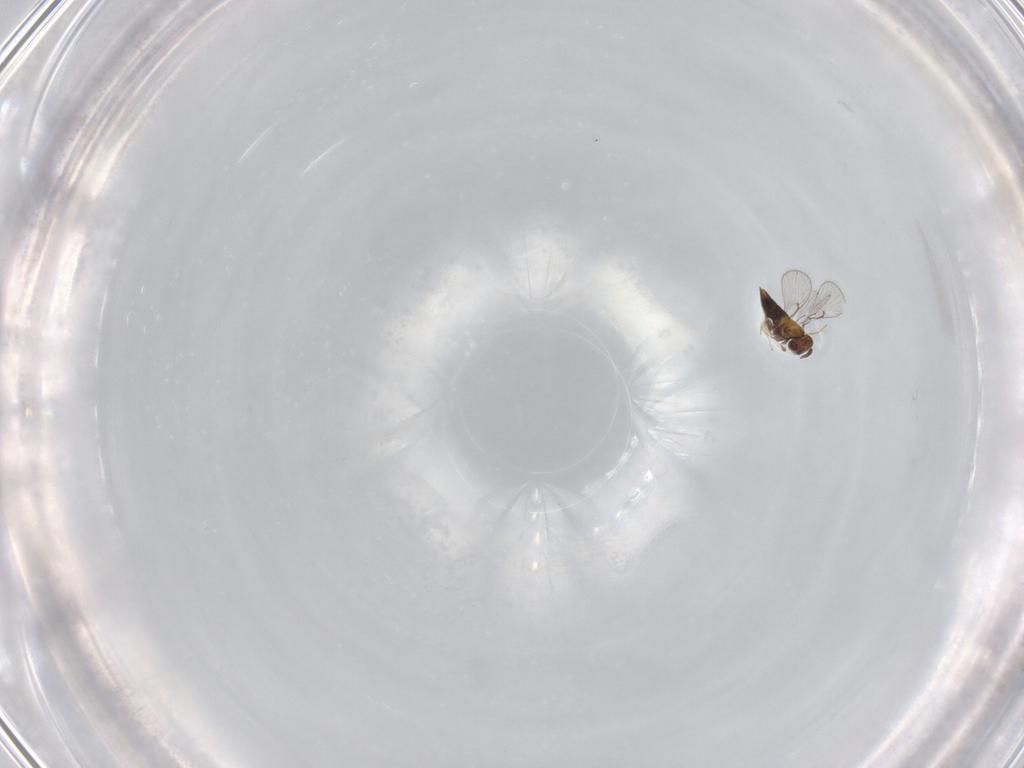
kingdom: Animalia
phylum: Arthropoda
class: Insecta
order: Hymenoptera
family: Trichogrammatidae
